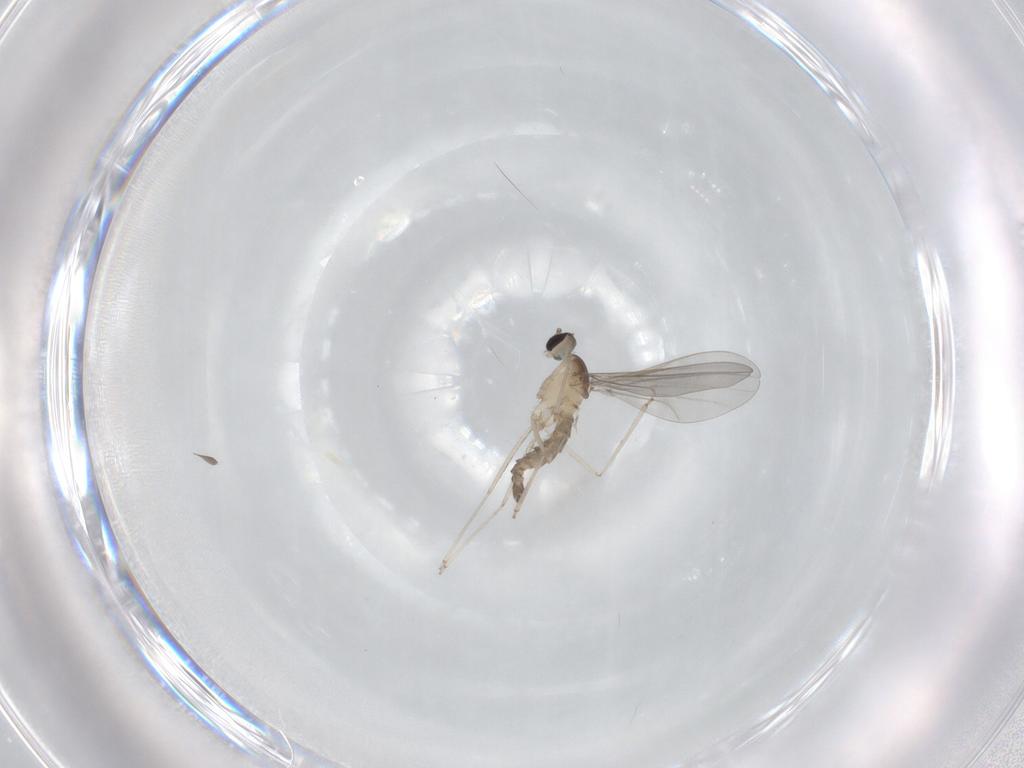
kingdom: Animalia
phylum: Arthropoda
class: Insecta
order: Diptera
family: Cecidomyiidae
